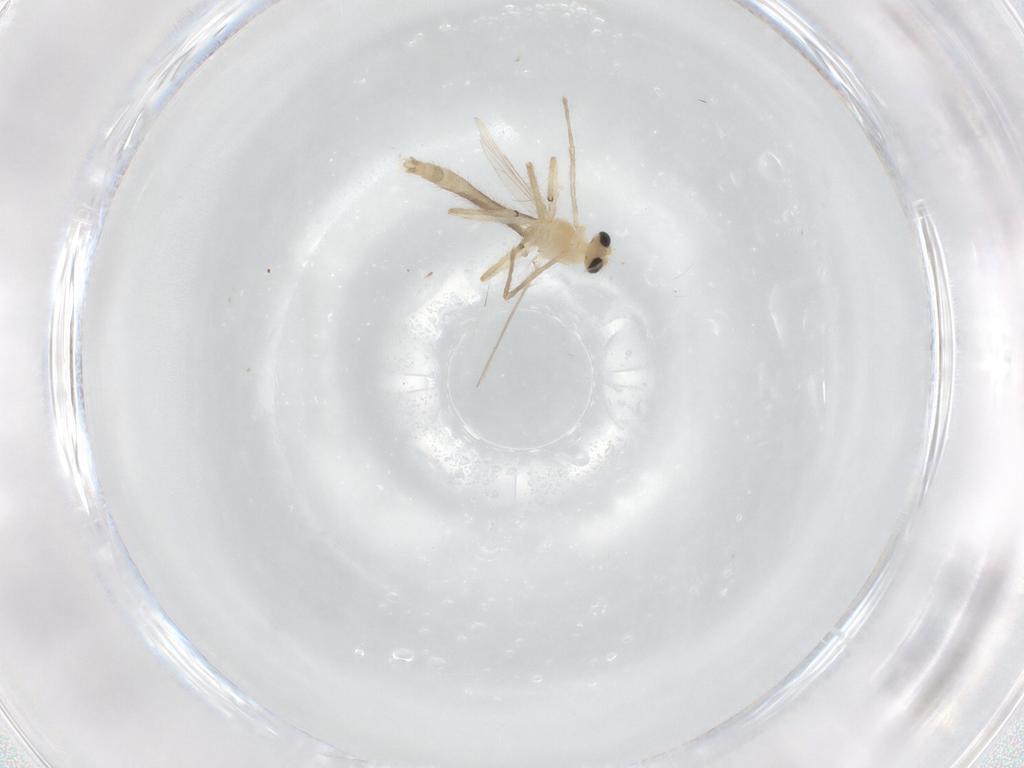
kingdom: Animalia
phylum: Arthropoda
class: Insecta
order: Diptera
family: Chironomidae
